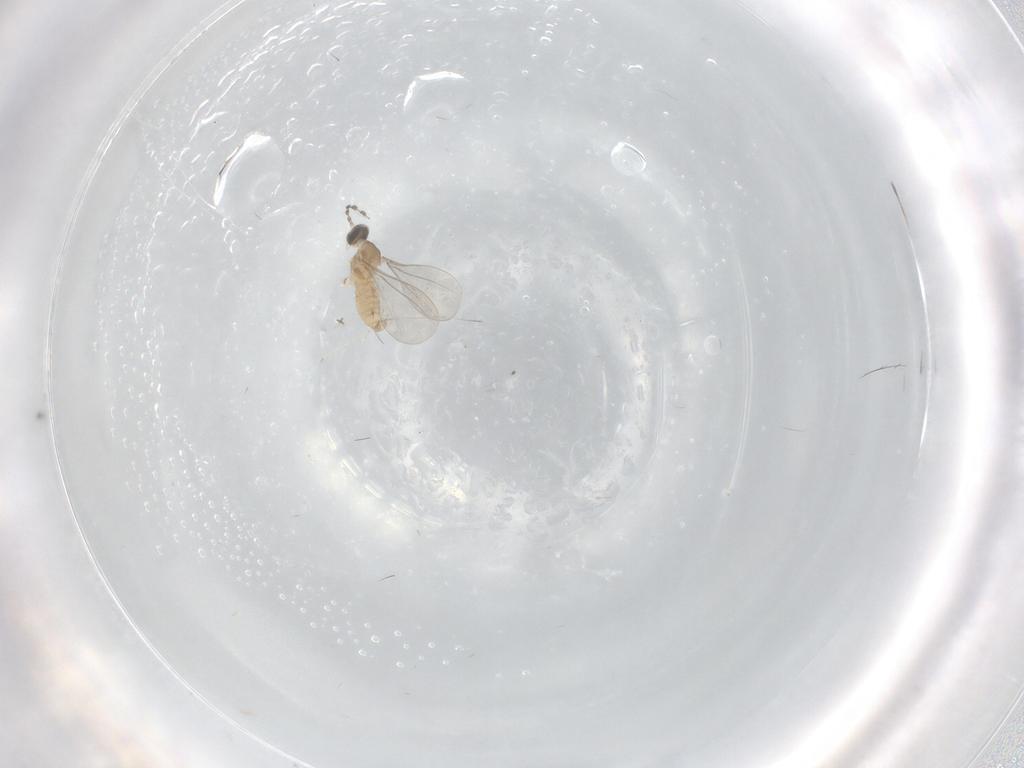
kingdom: Animalia
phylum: Arthropoda
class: Insecta
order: Diptera
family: Cecidomyiidae
